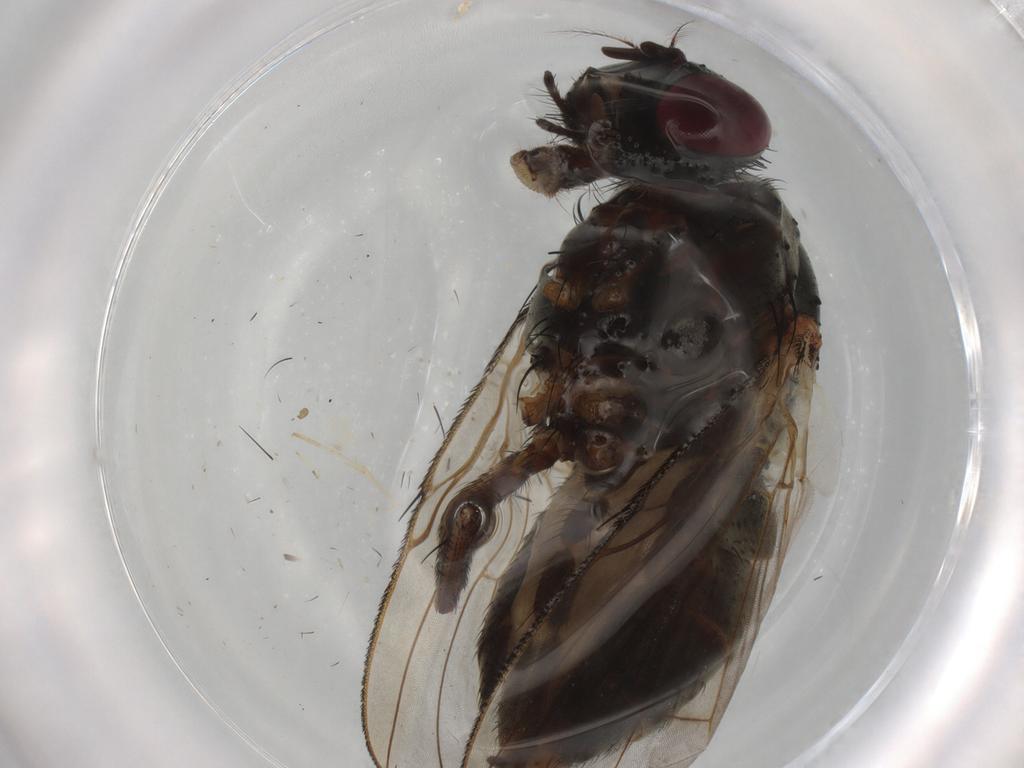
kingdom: Animalia
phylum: Arthropoda
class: Insecta
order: Diptera
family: Muscidae
